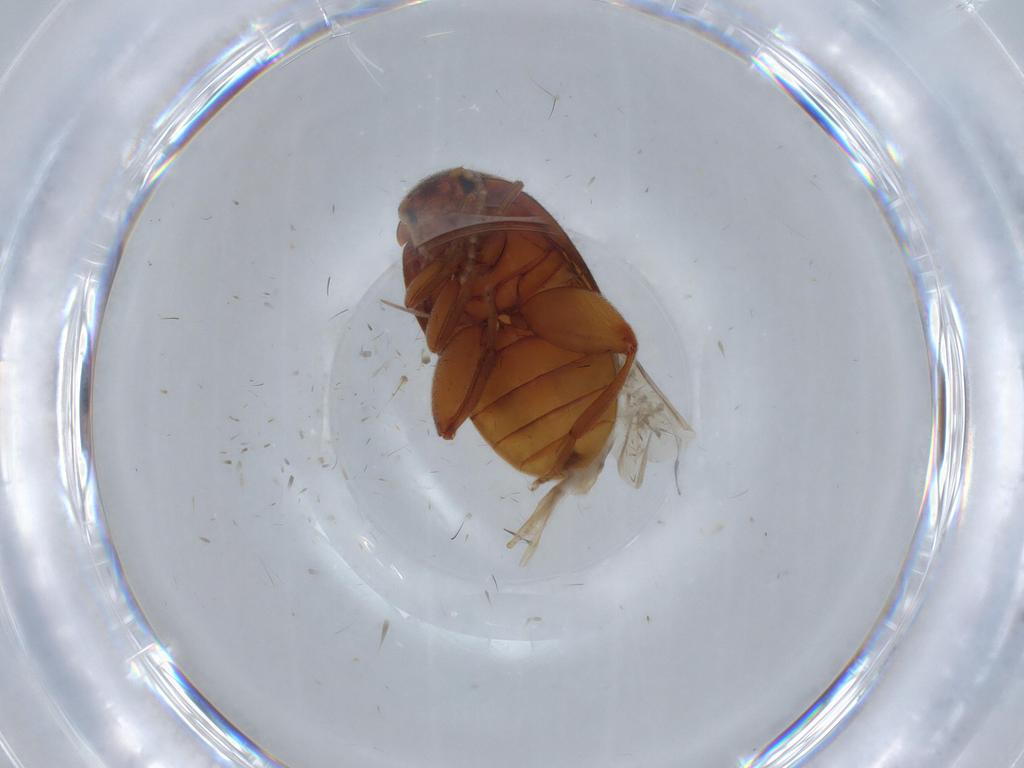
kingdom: Animalia
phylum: Arthropoda
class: Insecta
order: Coleoptera
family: Scirtidae
